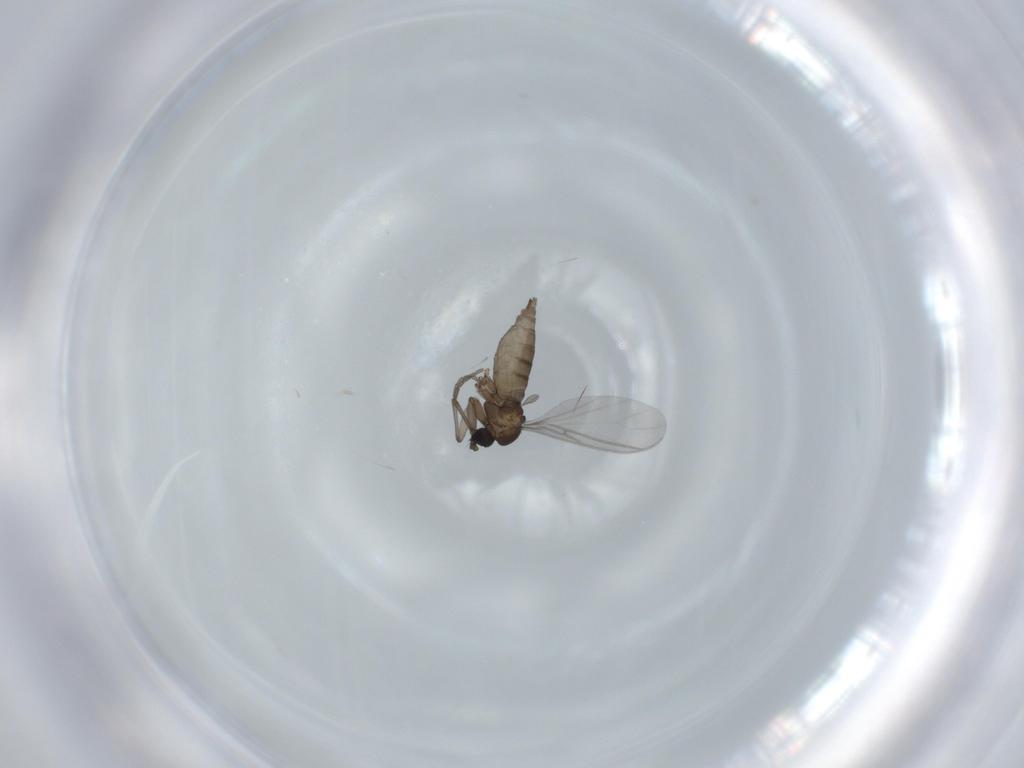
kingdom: Animalia
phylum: Arthropoda
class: Insecta
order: Diptera
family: Sciaridae
